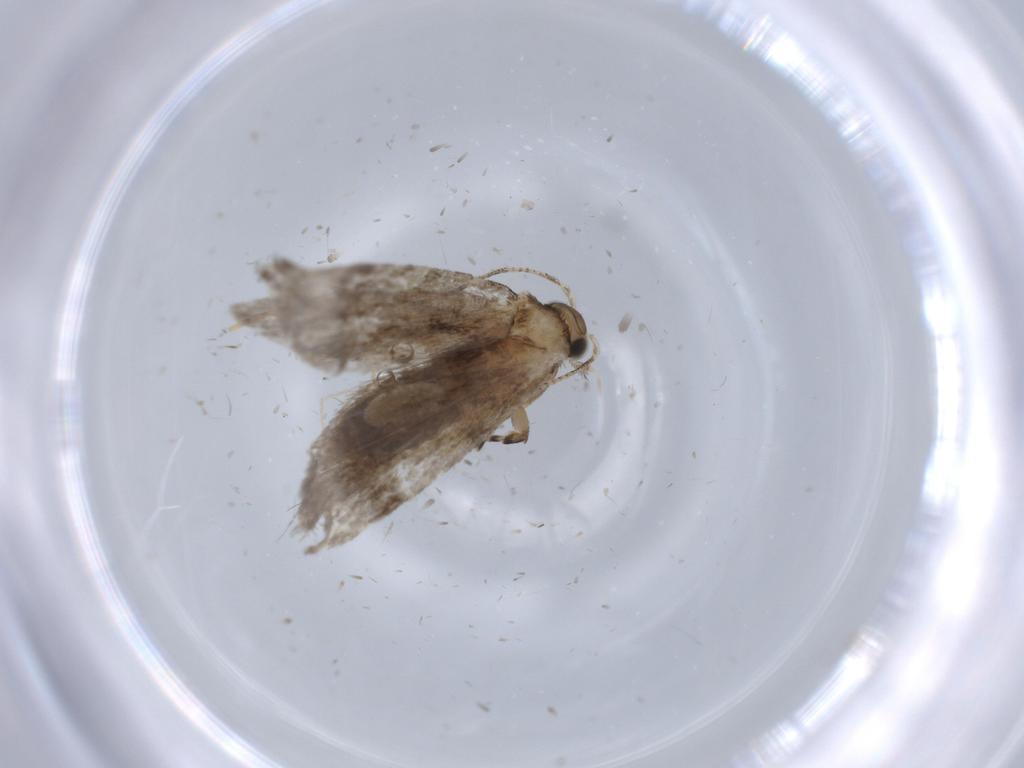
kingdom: Animalia
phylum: Arthropoda
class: Insecta
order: Lepidoptera
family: Tineidae
